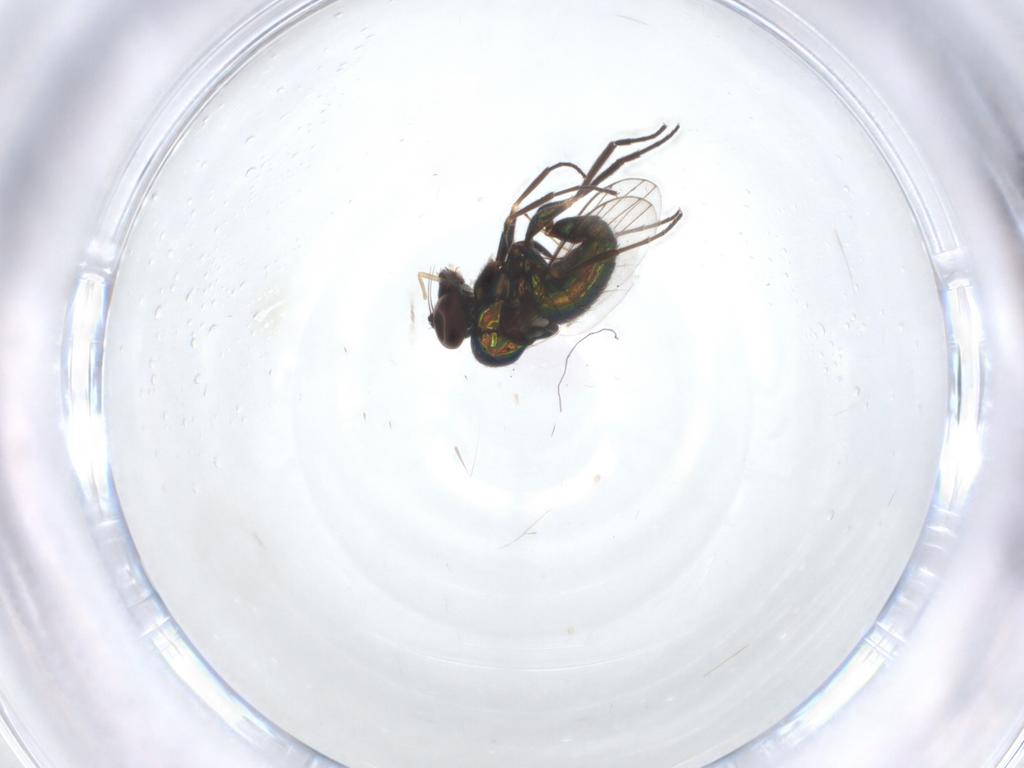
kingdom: Animalia
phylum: Arthropoda
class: Insecta
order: Diptera
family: Dolichopodidae
